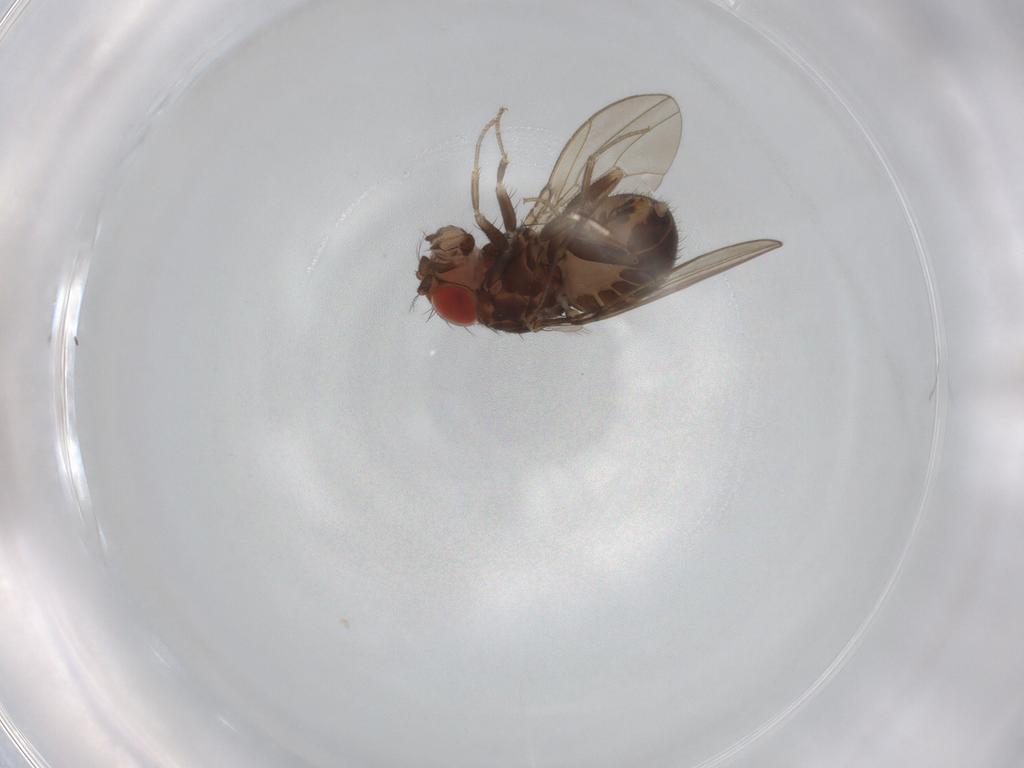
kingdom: Animalia
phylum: Arthropoda
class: Insecta
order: Diptera
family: Drosophilidae
